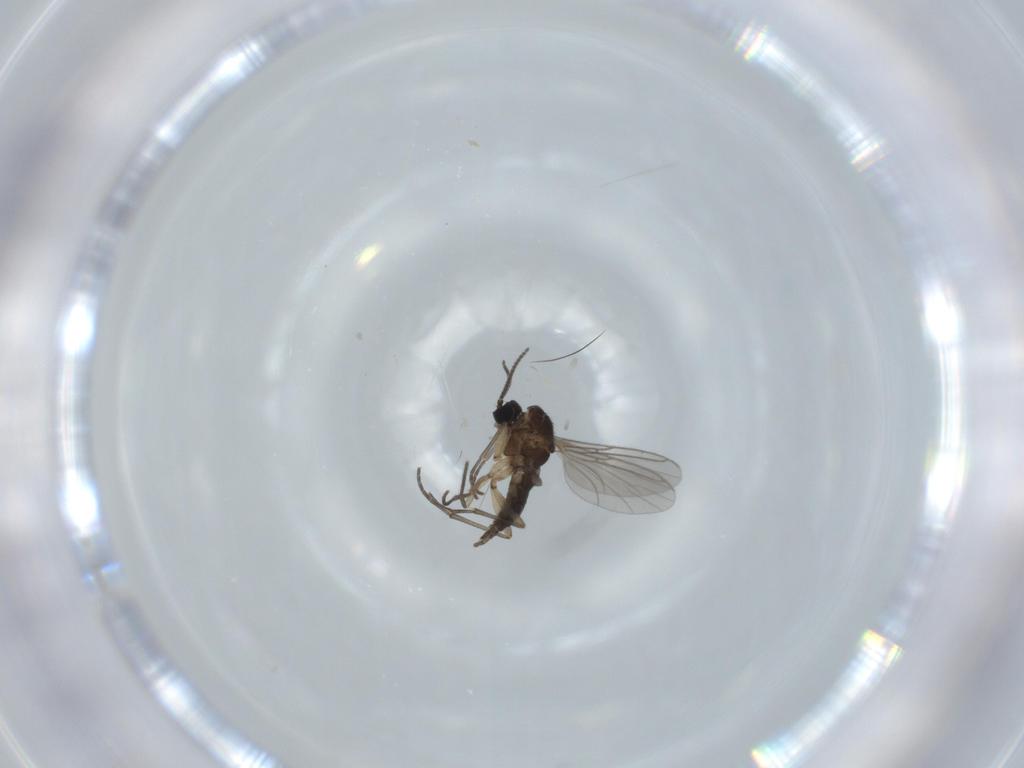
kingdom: Animalia
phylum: Arthropoda
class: Insecta
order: Diptera
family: Sciaridae
